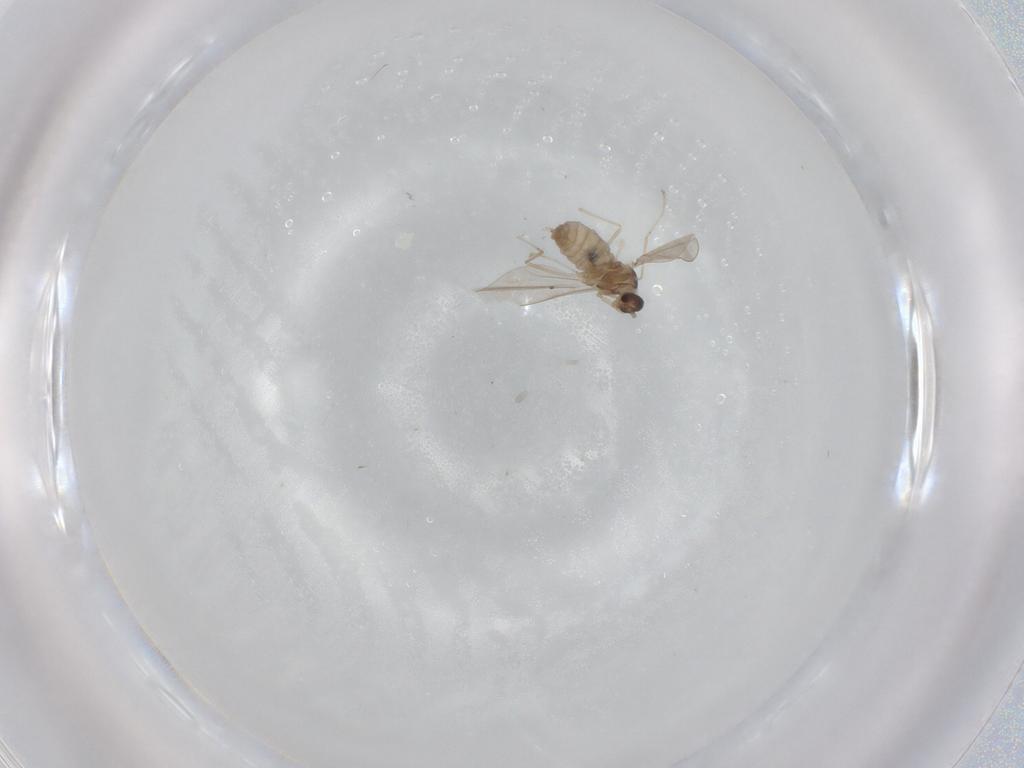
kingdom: Animalia
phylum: Arthropoda
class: Insecta
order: Diptera
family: Cecidomyiidae
